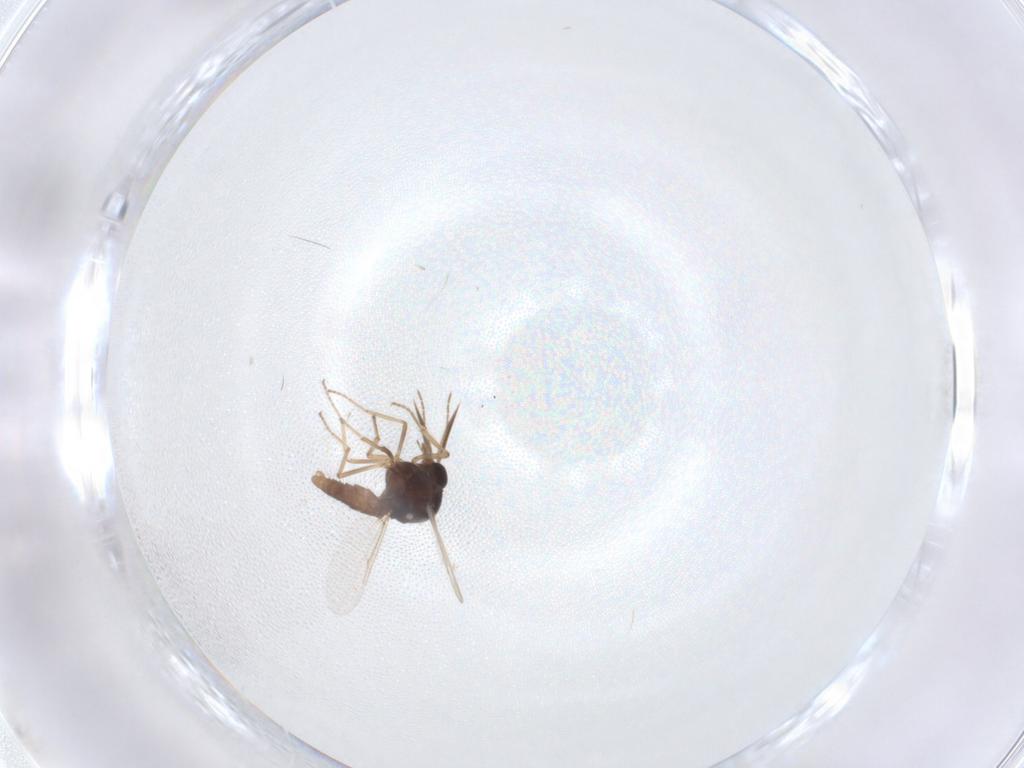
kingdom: Animalia
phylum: Arthropoda
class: Insecta
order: Diptera
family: Ceratopogonidae
